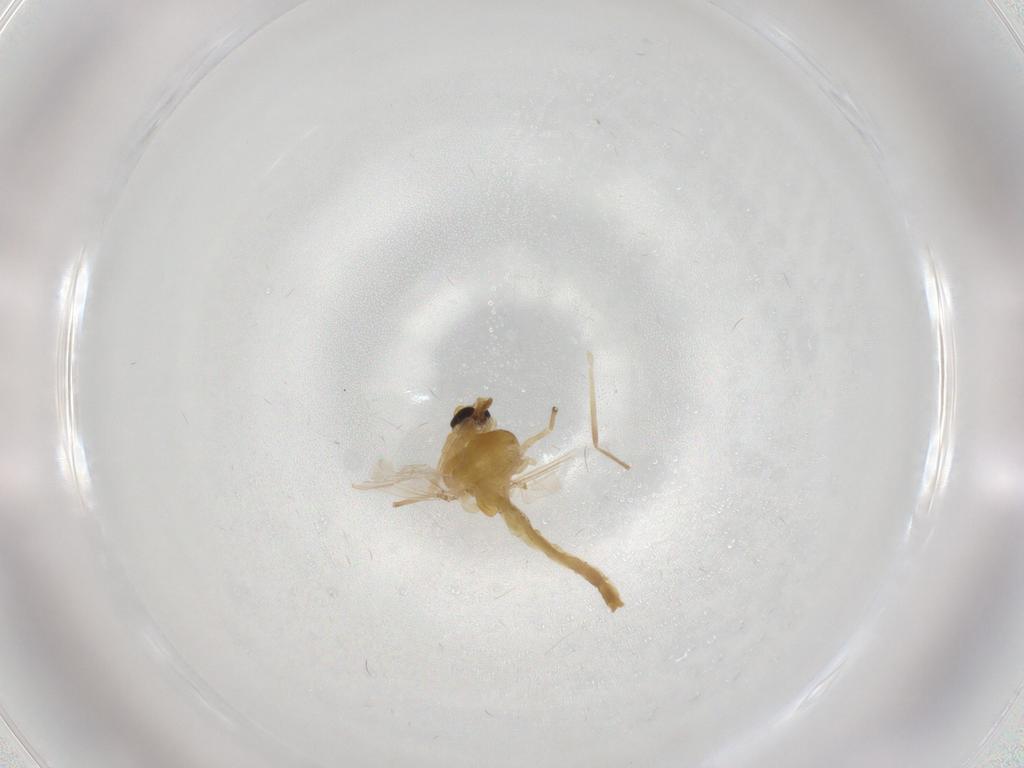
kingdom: Animalia
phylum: Arthropoda
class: Insecta
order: Diptera
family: Chironomidae
